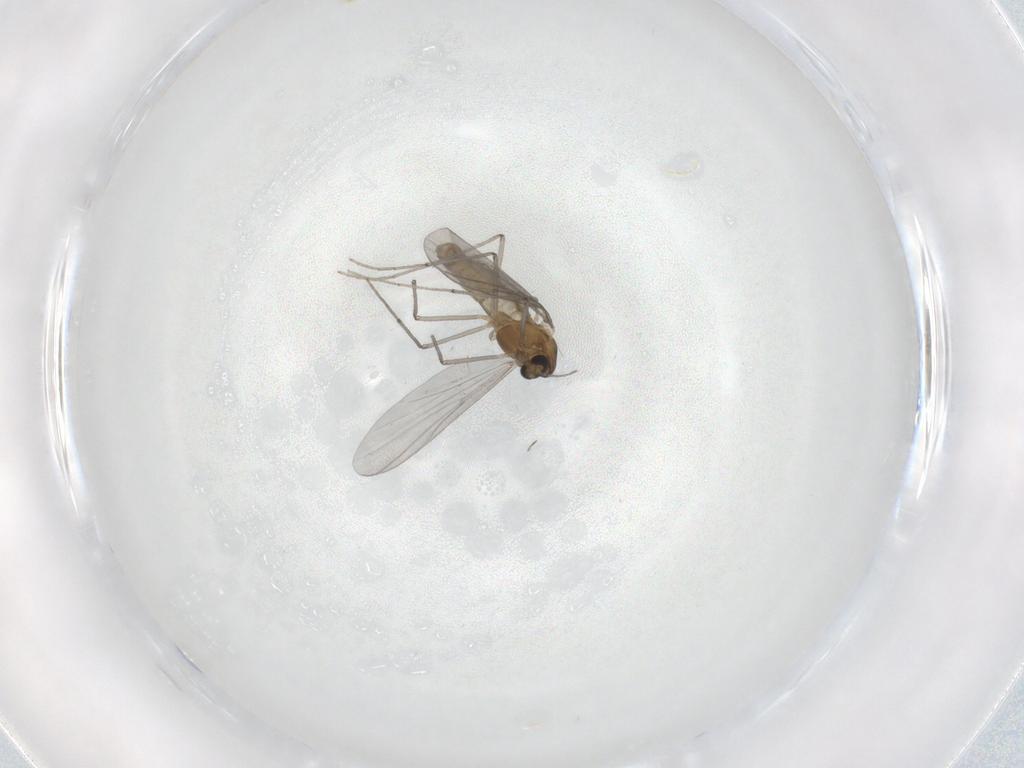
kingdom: Animalia
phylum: Arthropoda
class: Insecta
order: Diptera
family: Chironomidae
